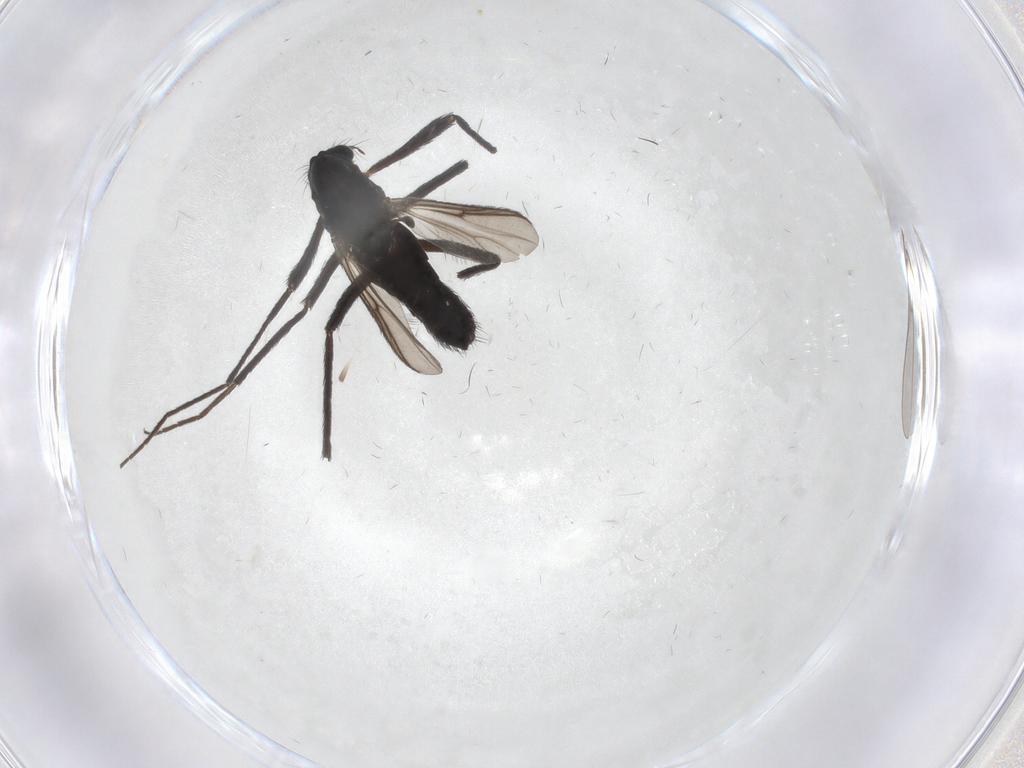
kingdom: Animalia
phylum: Arthropoda
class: Insecta
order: Diptera
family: Chironomidae
